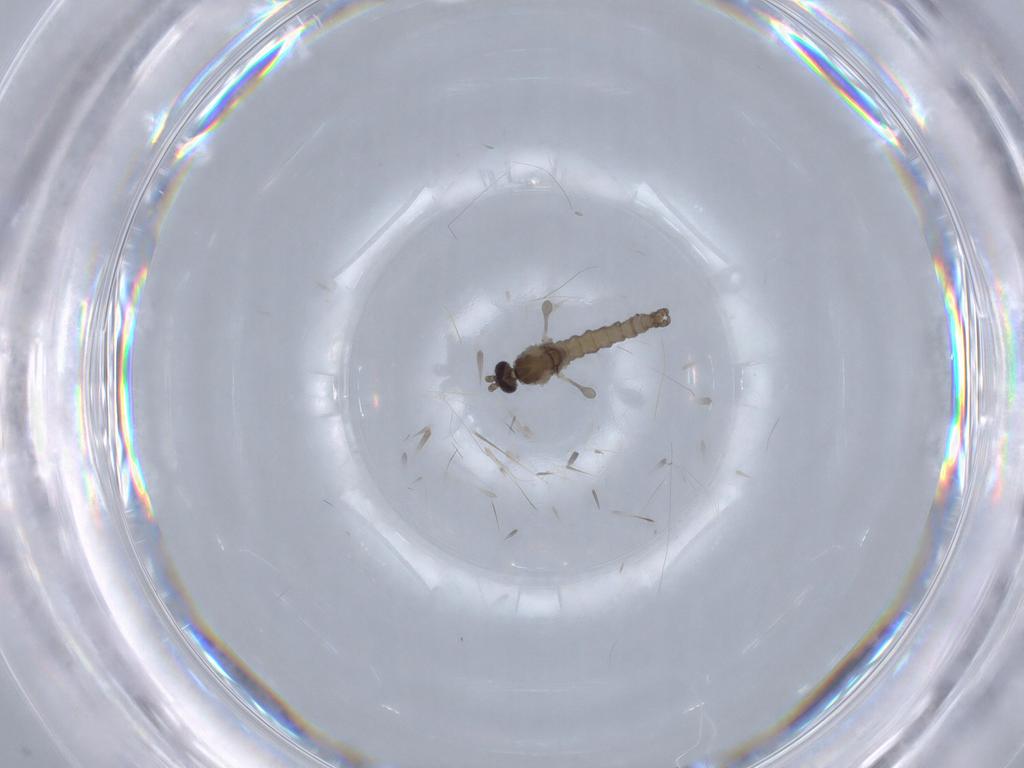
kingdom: Animalia
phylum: Arthropoda
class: Insecta
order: Diptera
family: Cecidomyiidae
